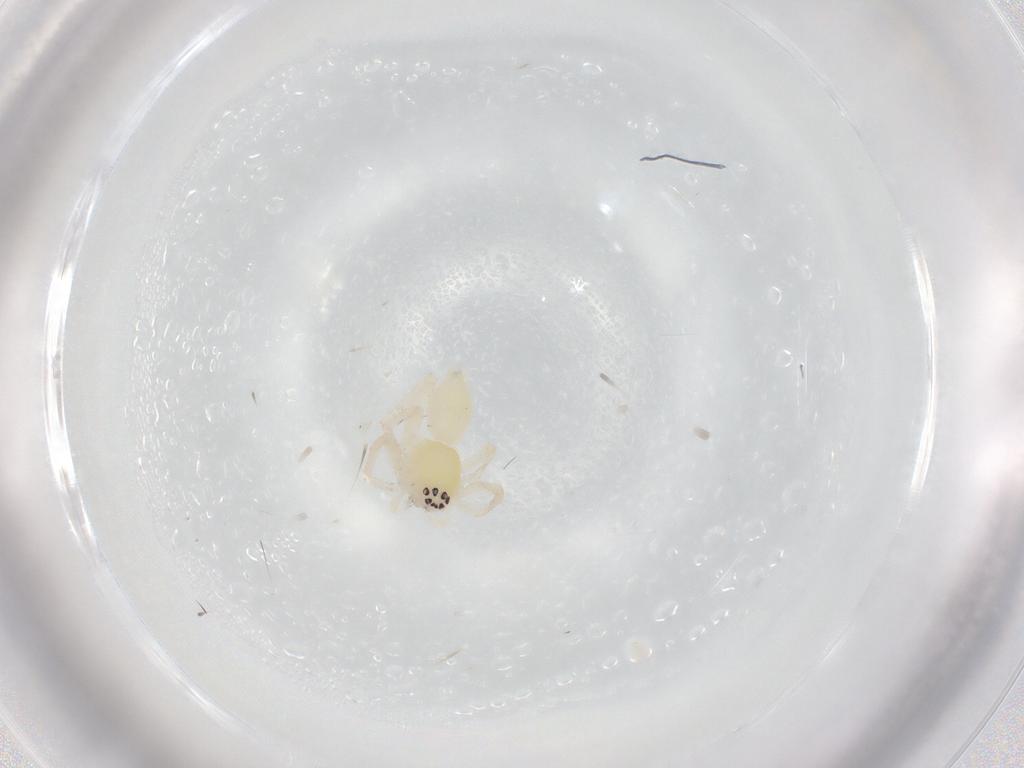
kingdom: Animalia
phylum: Arthropoda
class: Arachnida
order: Araneae
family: Anyphaenidae
